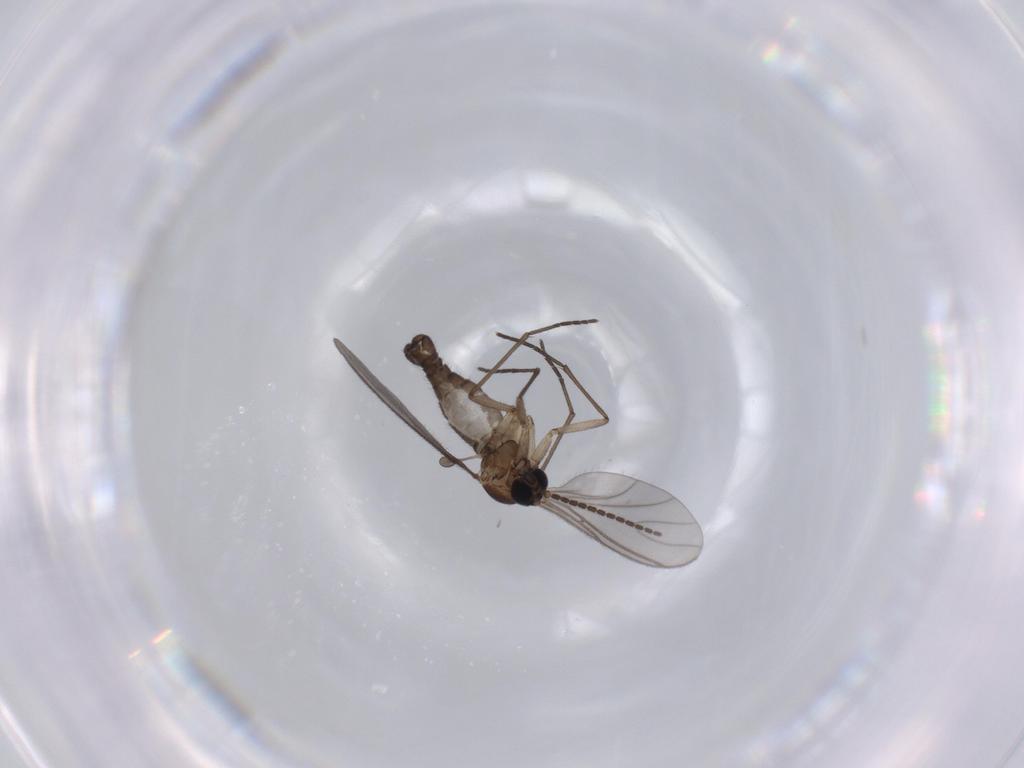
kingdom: Animalia
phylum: Arthropoda
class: Insecta
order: Diptera
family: Sciaridae
